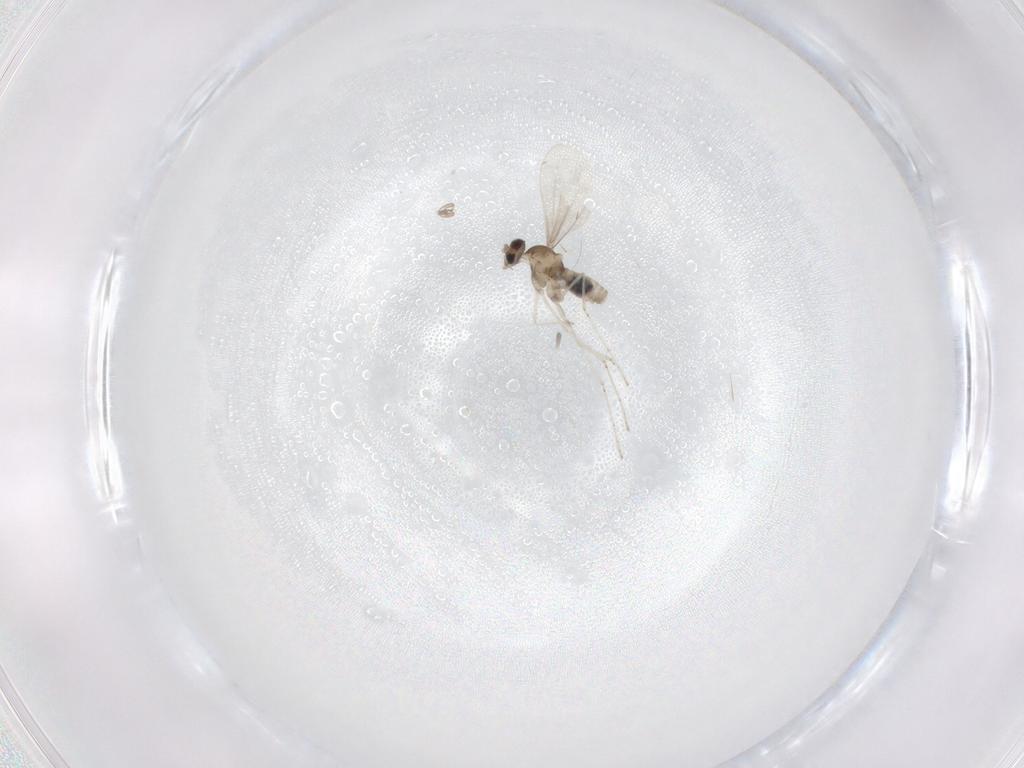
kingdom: Animalia
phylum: Arthropoda
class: Insecta
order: Diptera
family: Cecidomyiidae
